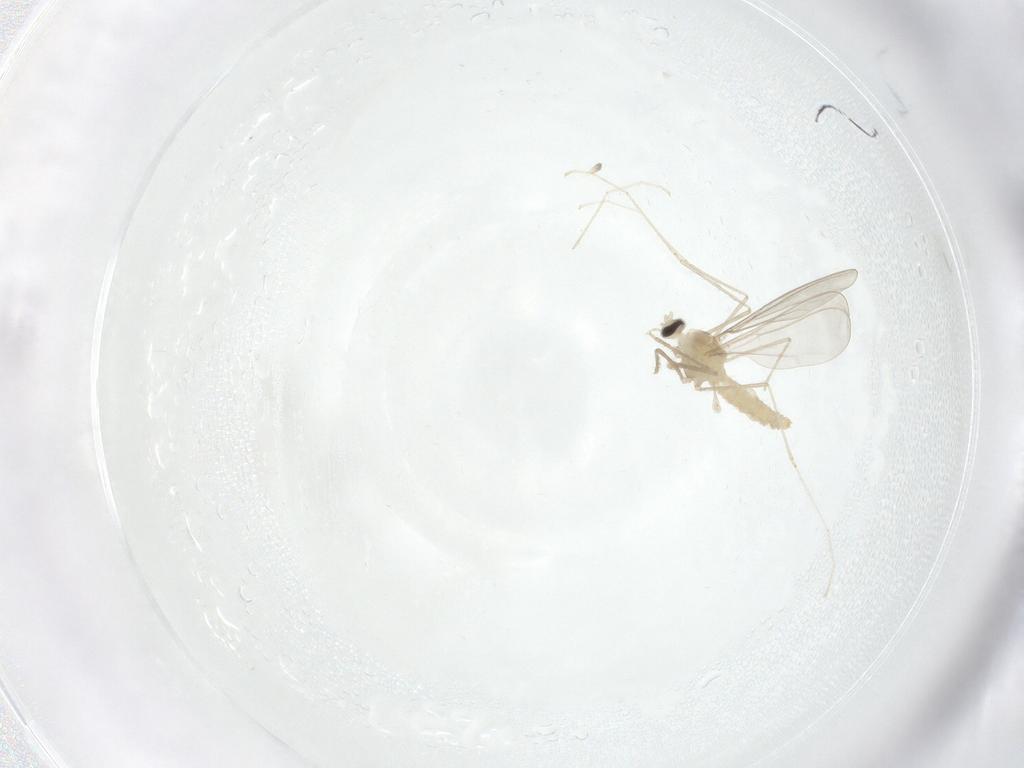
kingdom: Animalia
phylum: Arthropoda
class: Insecta
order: Diptera
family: Cecidomyiidae
